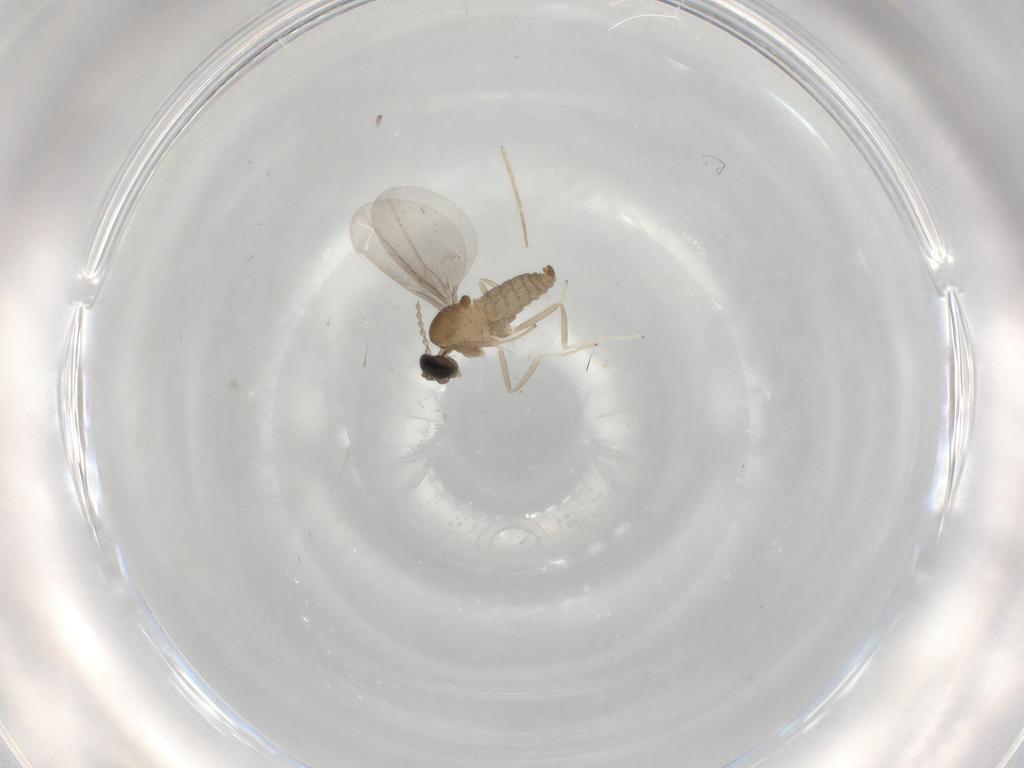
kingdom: Animalia
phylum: Arthropoda
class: Insecta
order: Diptera
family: Cecidomyiidae
